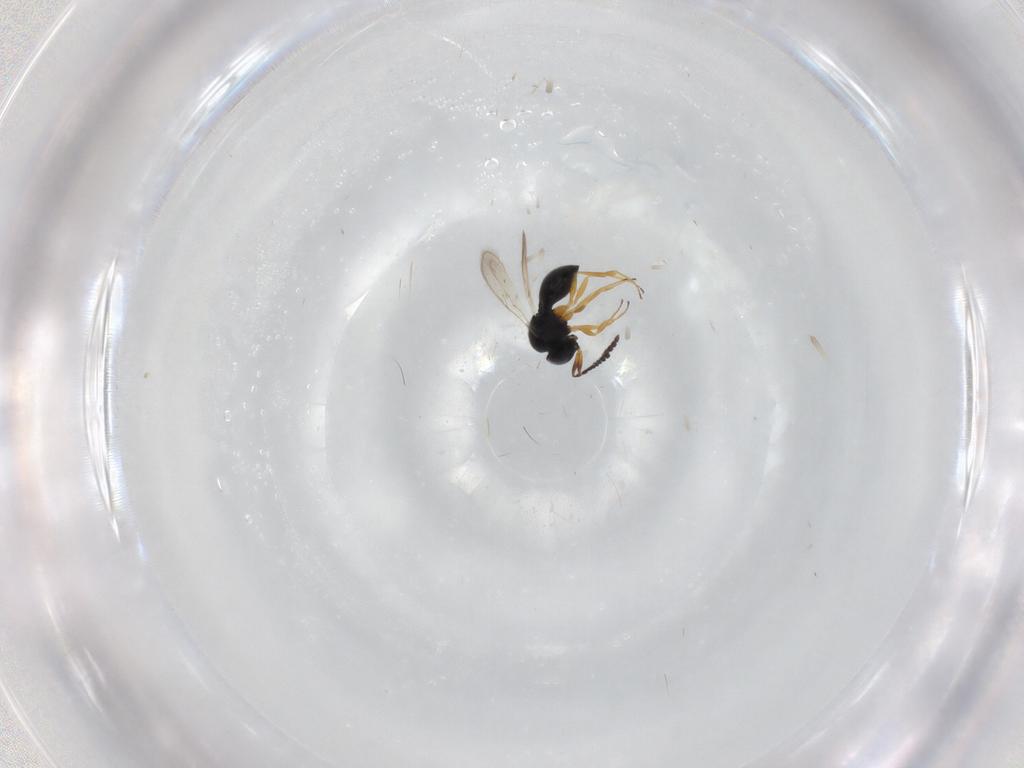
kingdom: Animalia
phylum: Arthropoda
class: Insecta
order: Hymenoptera
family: Scelionidae
